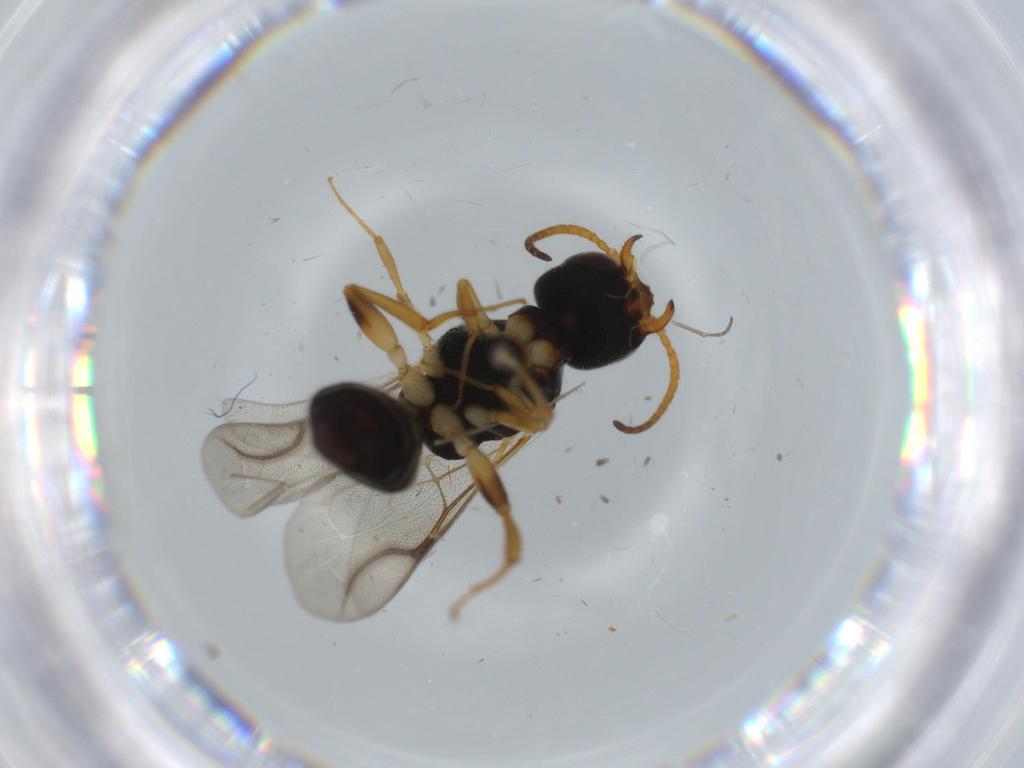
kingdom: Animalia
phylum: Arthropoda
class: Insecta
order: Hymenoptera
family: Bethylidae
